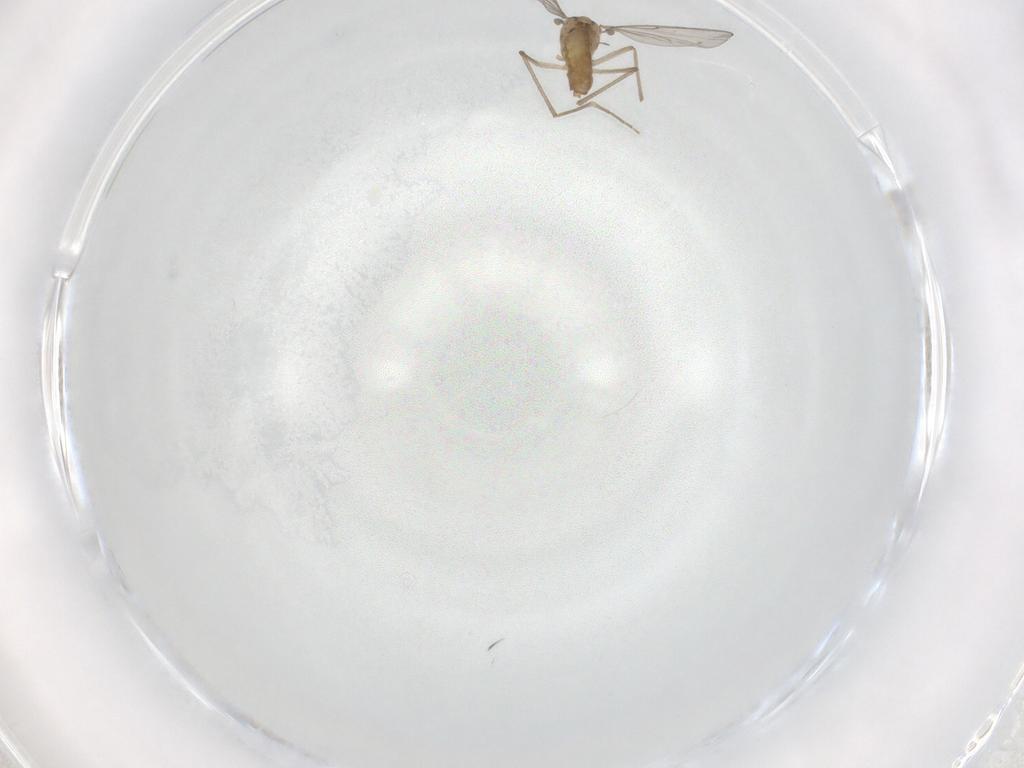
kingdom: Animalia
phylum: Arthropoda
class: Insecta
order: Diptera
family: Chironomidae
